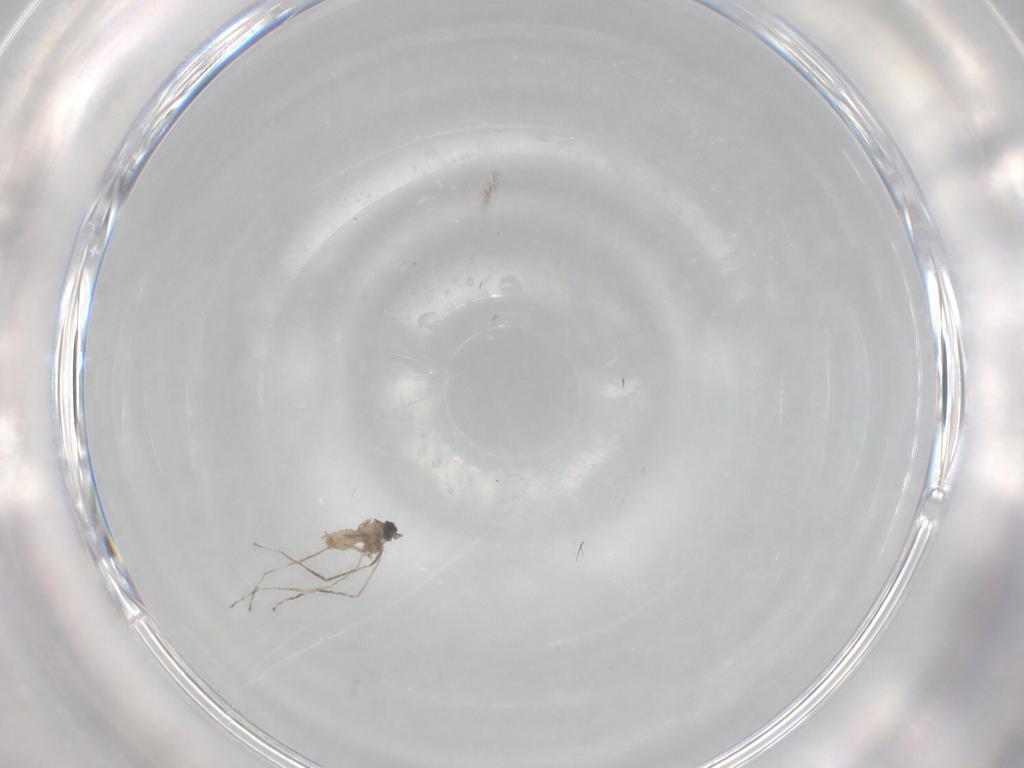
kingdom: Animalia
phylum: Arthropoda
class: Insecta
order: Diptera
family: Cecidomyiidae
